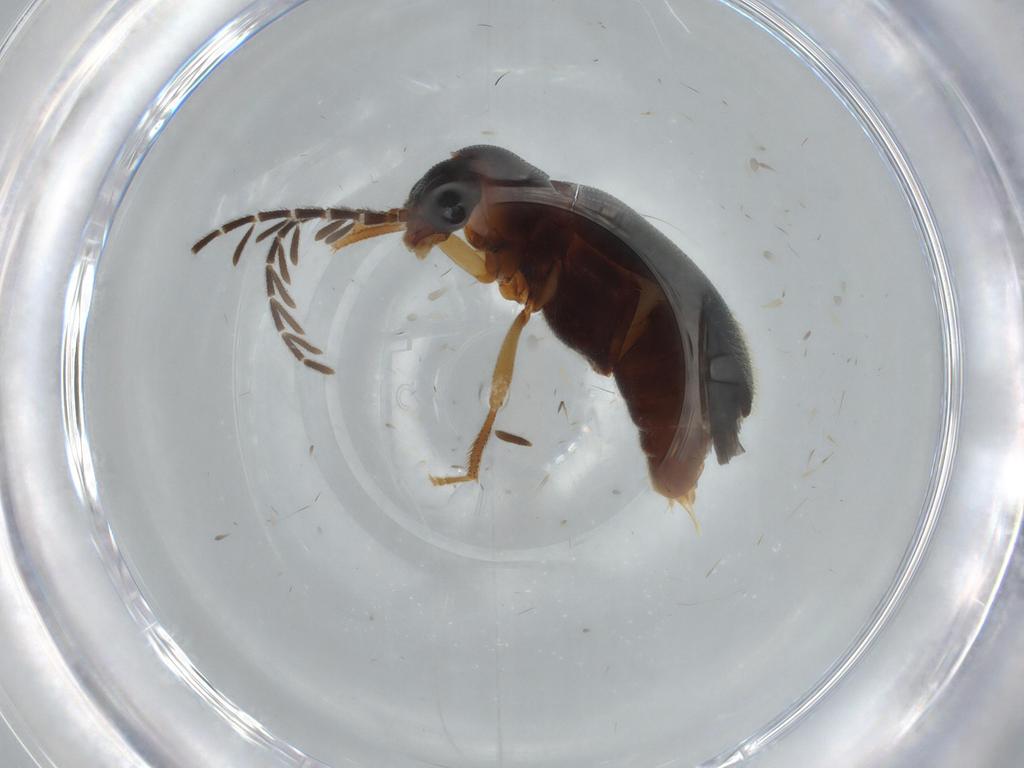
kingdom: Animalia
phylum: Arthropoda
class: Insecta
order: Coleoptera
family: Ptilodactylidae
